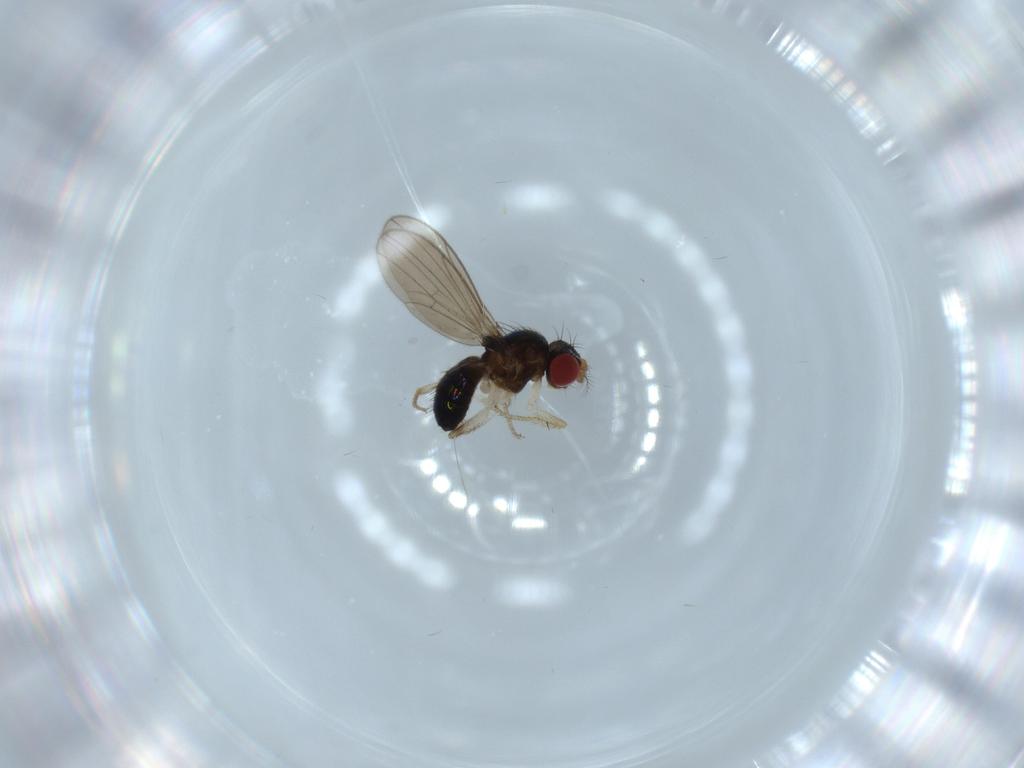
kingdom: Animalia
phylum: Arthropoda
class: Insecta
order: Diptera
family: Drosophilidae
